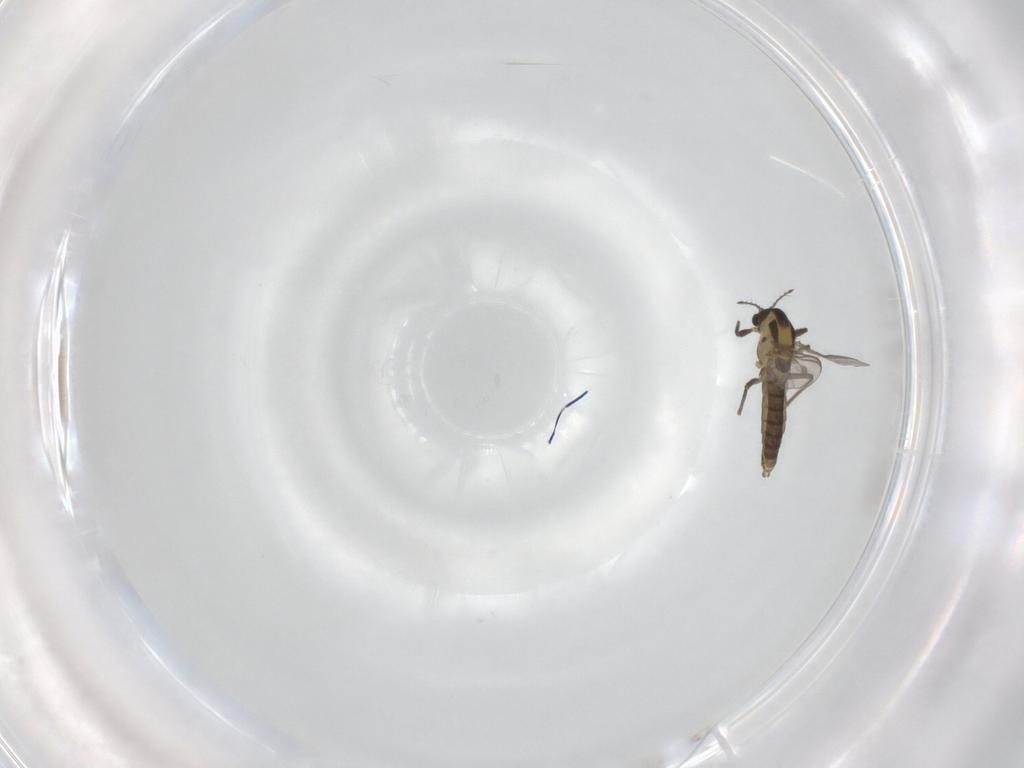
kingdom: Animalia
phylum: Arthropoda
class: Insecta
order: Diptera
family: Chironomidae
